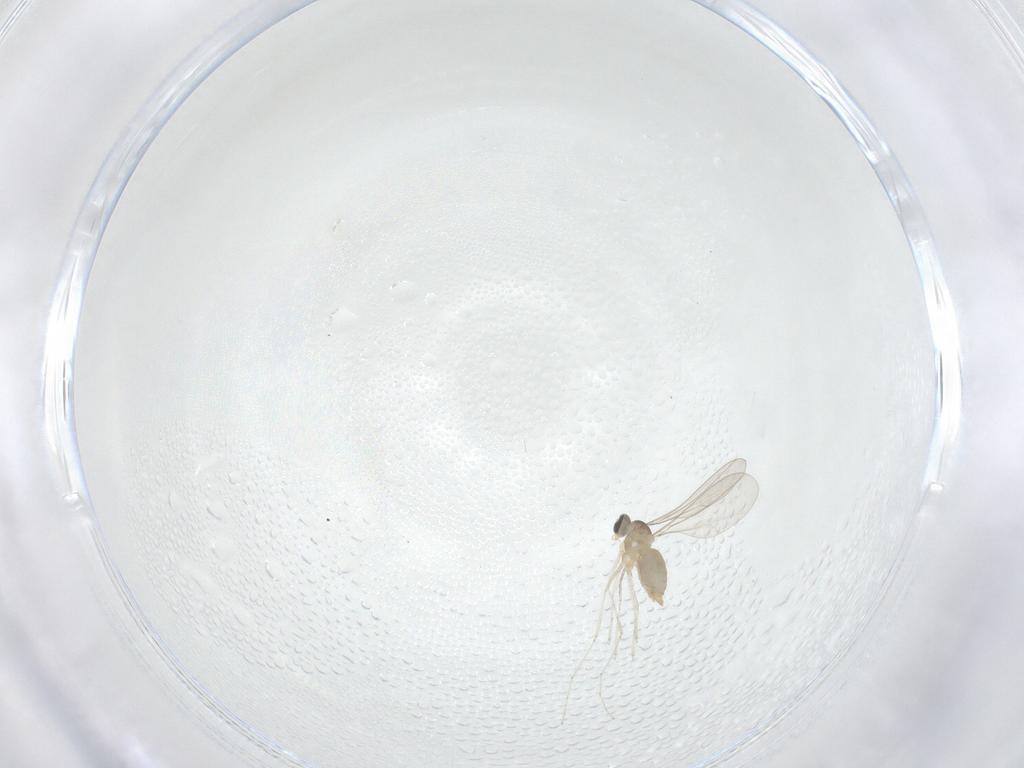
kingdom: Animalia
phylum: Arthropoda
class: Insecta
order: Diptera
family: Cecidomyiidae
